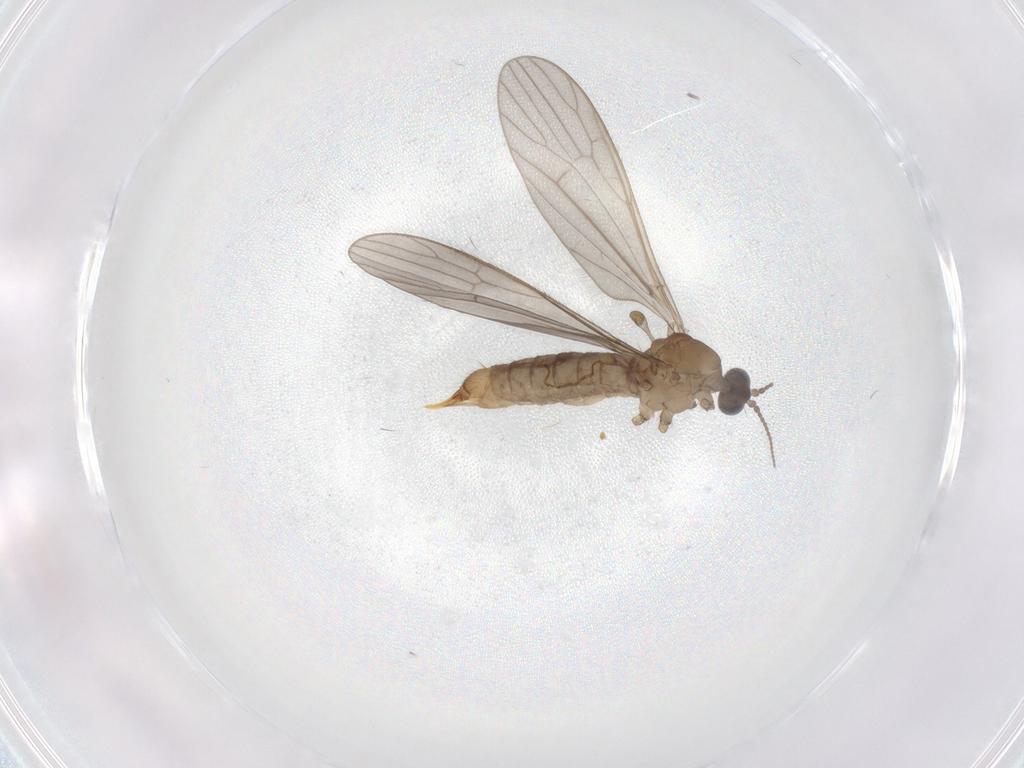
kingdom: Animalia
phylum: Arthropoda
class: Insecta
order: Diptera
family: Limoniidae
